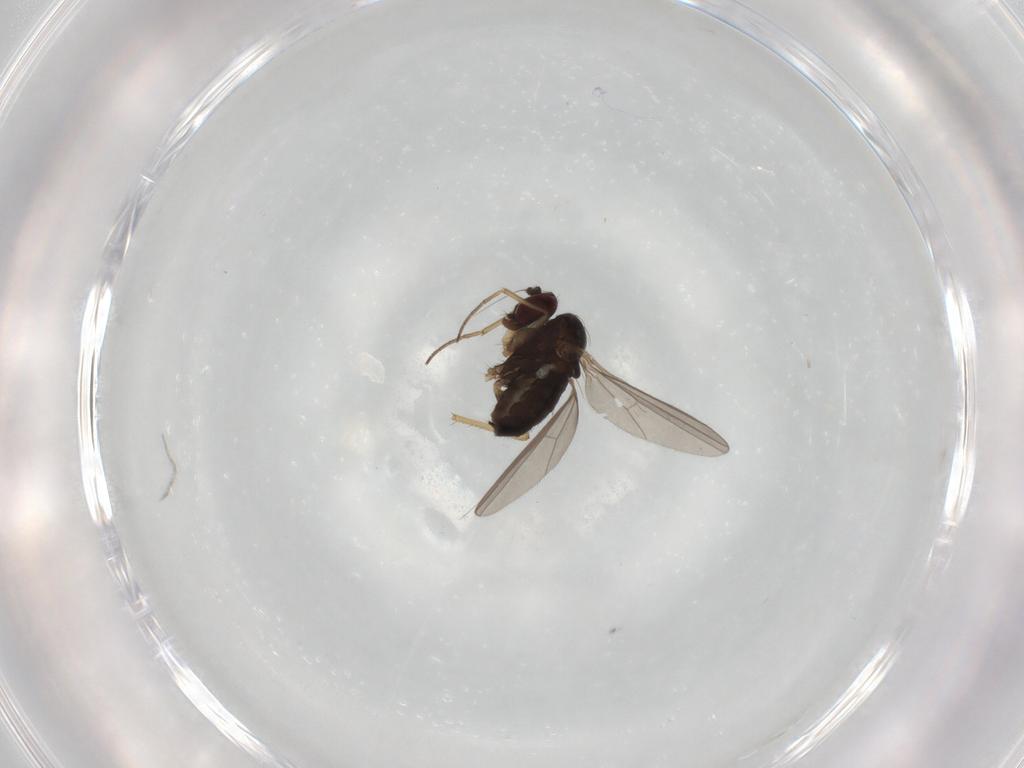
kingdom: Animalia
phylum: Arthropoda
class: Insecta
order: Diptera
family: Dolichopodidae
